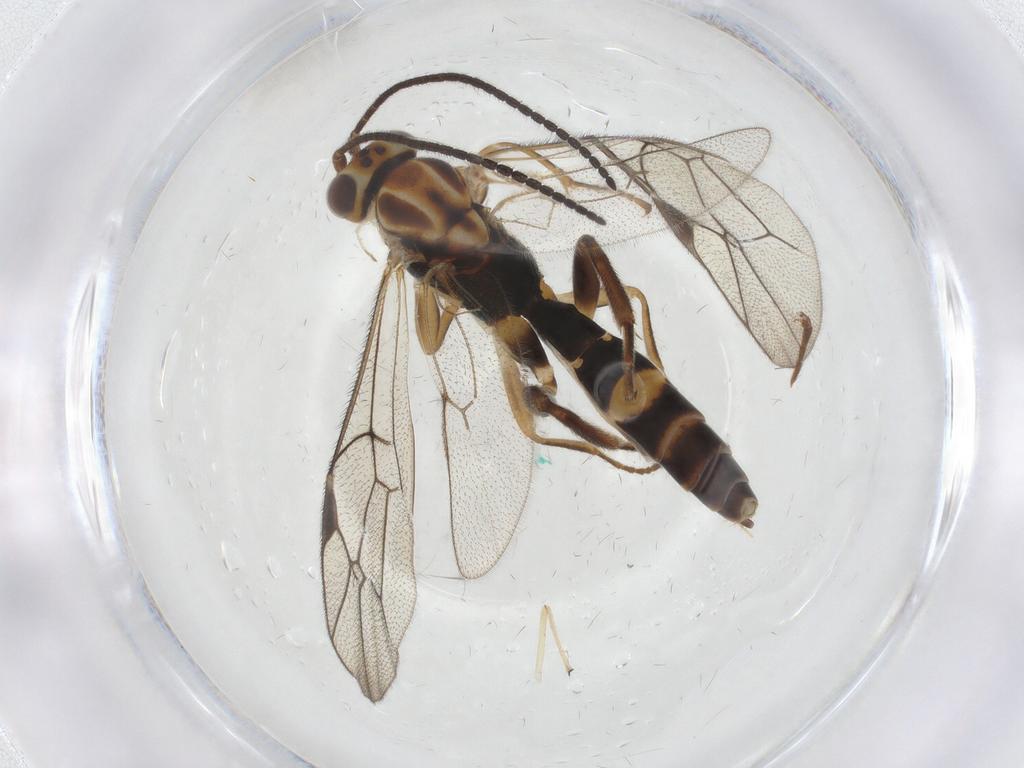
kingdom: Animalia
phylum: Arthropoda
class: Insecta
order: Hymenoptera
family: Ichneumonidae
